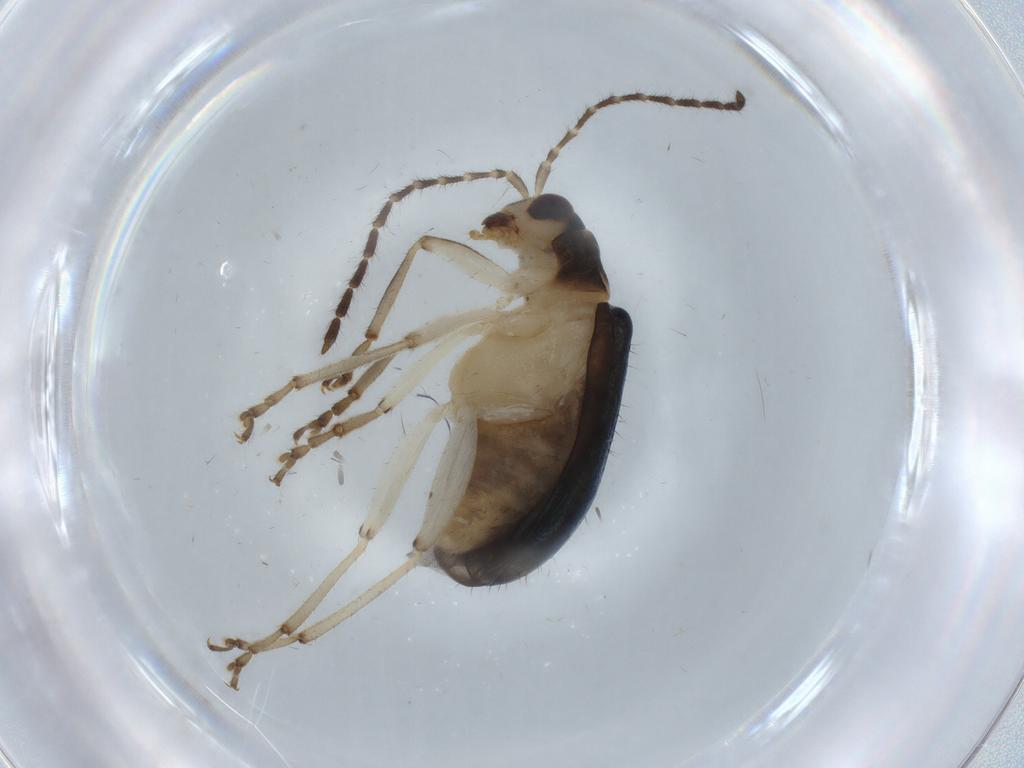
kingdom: Animalia
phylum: Arthropoda
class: Insecta
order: Coleoptera
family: Chrysomelidae
